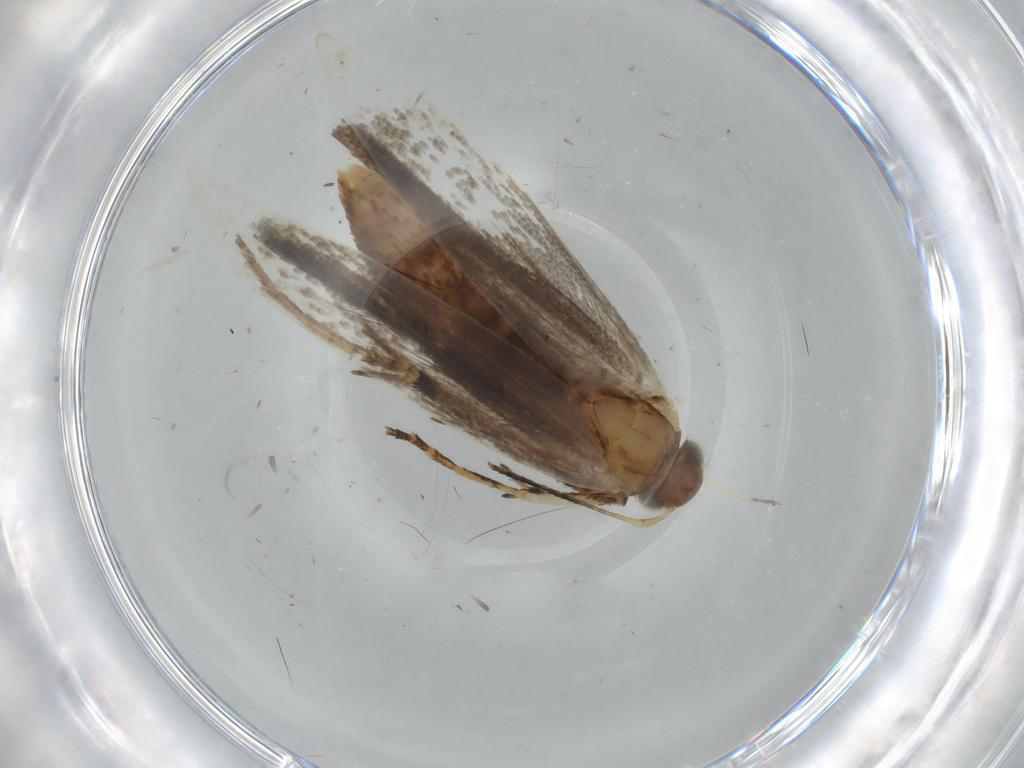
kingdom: Animalia
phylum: Arthropoda
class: Insecta
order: Lepidoptera
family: Gelechiidae
